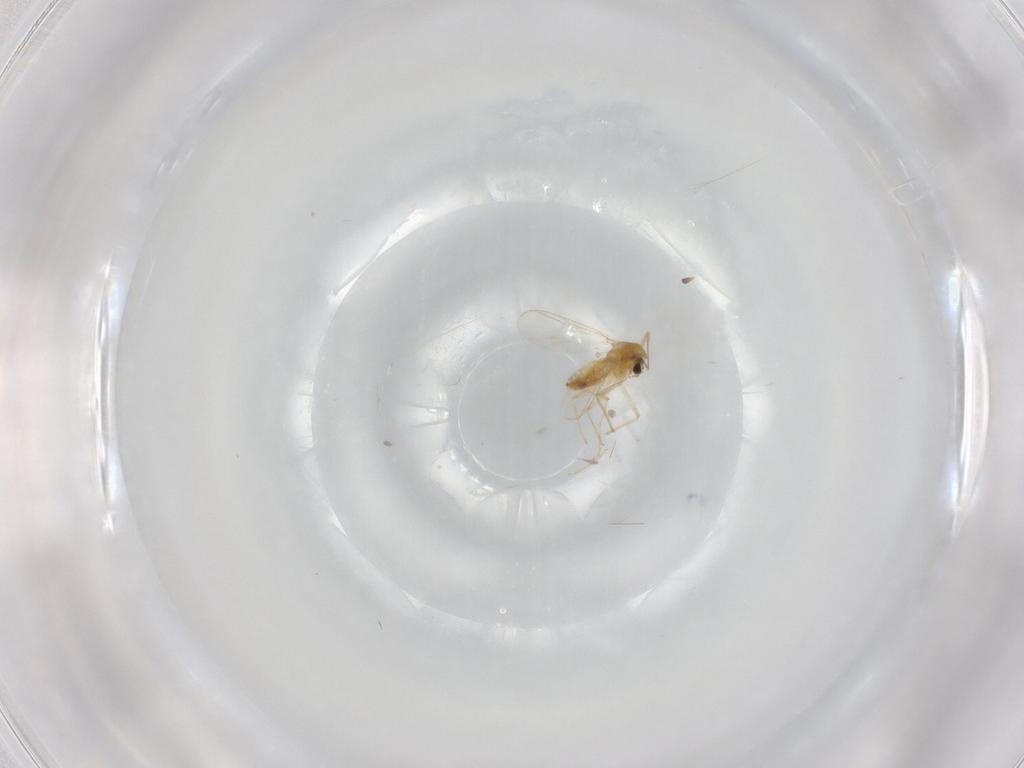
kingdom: Animalia
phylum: Arthropoda
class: Insecta
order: Diptera
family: Chironomidae
